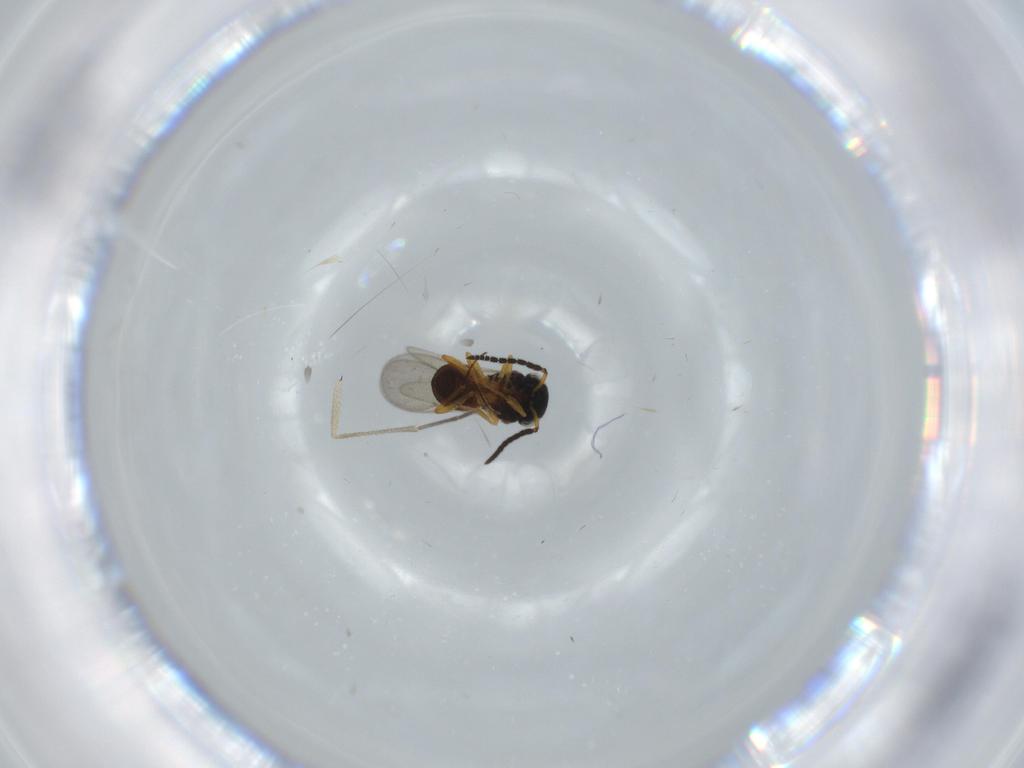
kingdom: Animalia
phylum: Arthropoda
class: Insecta
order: Coleoptera
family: Curculionidae
